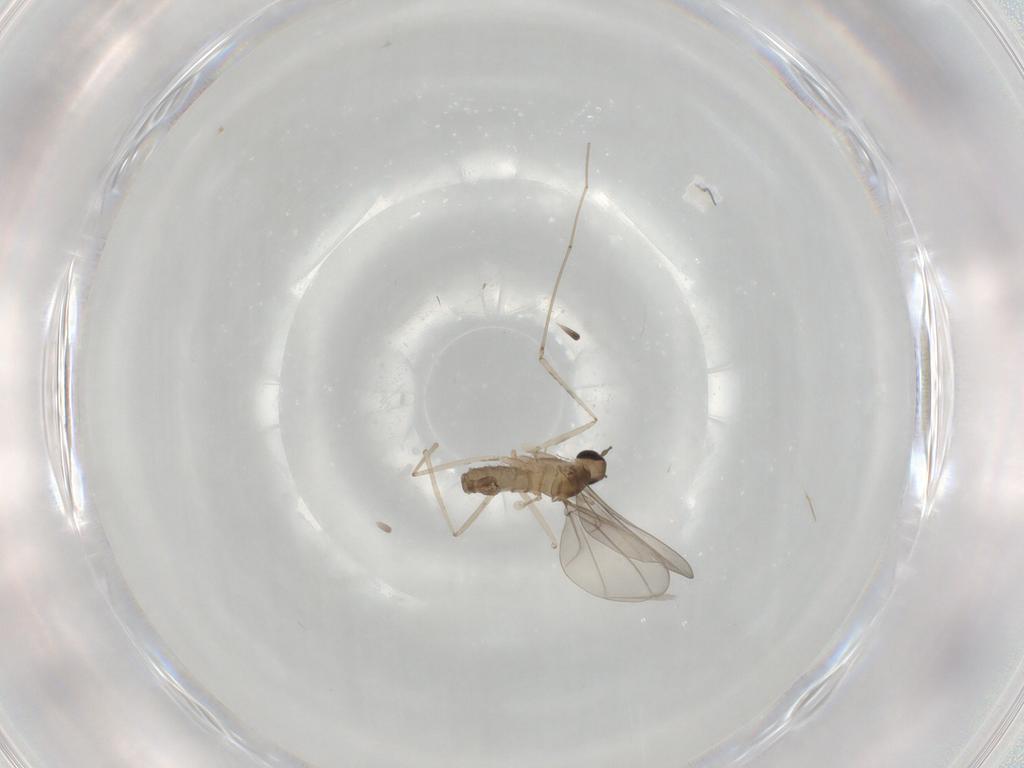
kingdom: Animalia
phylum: Arthropoda
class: Insecta
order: Diptera
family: Cecidomyiidae
